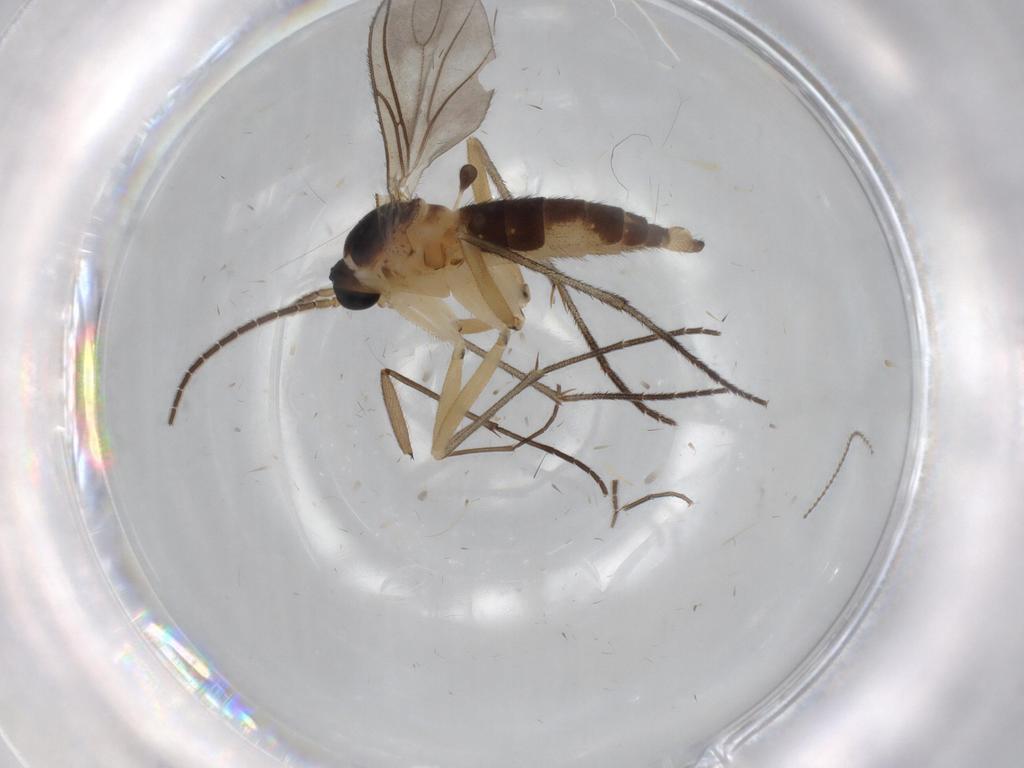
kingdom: Animalia
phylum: Arthropoda
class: Insecta
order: Diptera
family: Sciaridae
